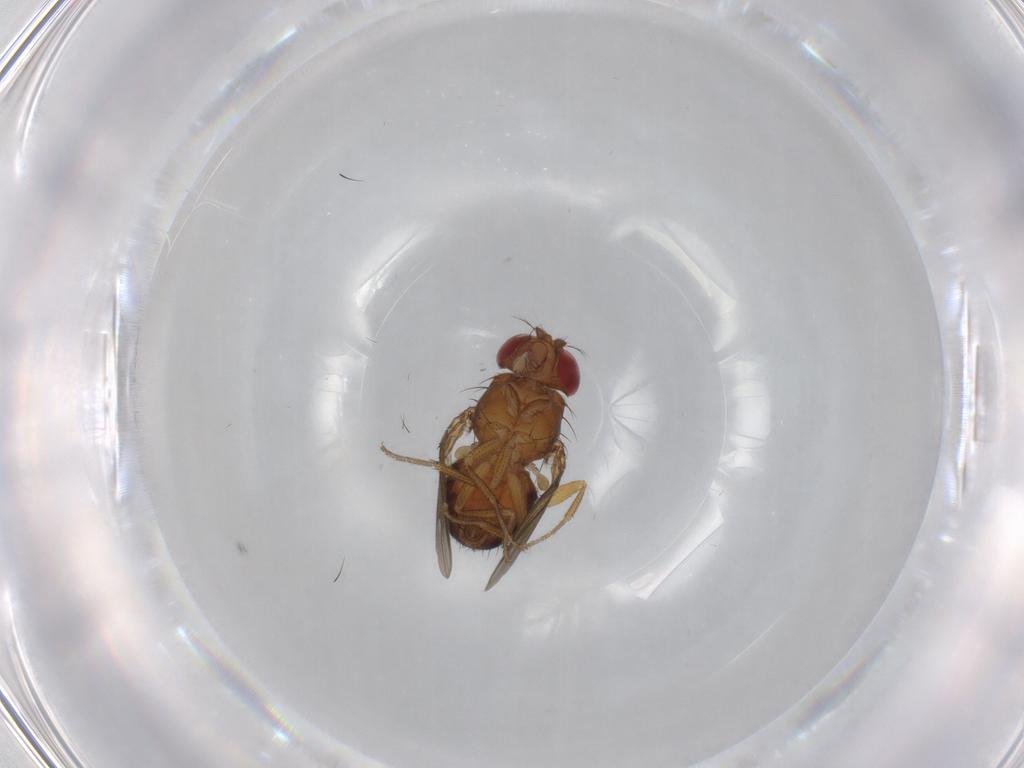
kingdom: Animalia
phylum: Arthropoda
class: Insecta
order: Diptera
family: Drosophilidae
